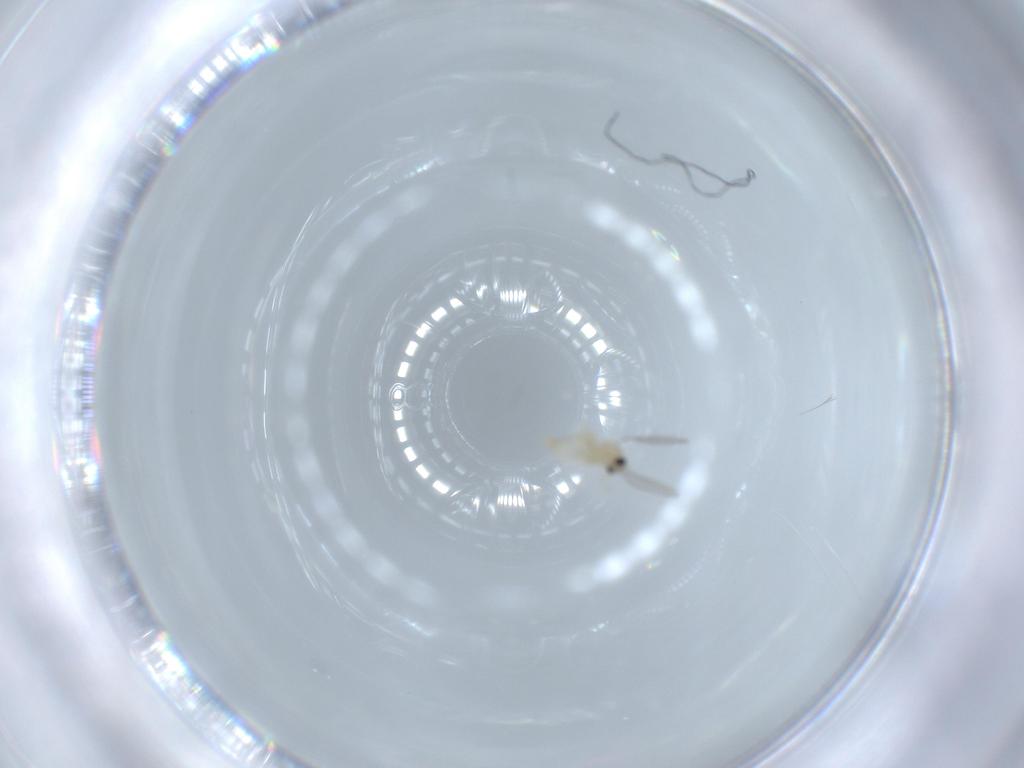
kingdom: Animalia
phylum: Arthropoda
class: Insecta
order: Diptera
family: Cecidomyiidae
